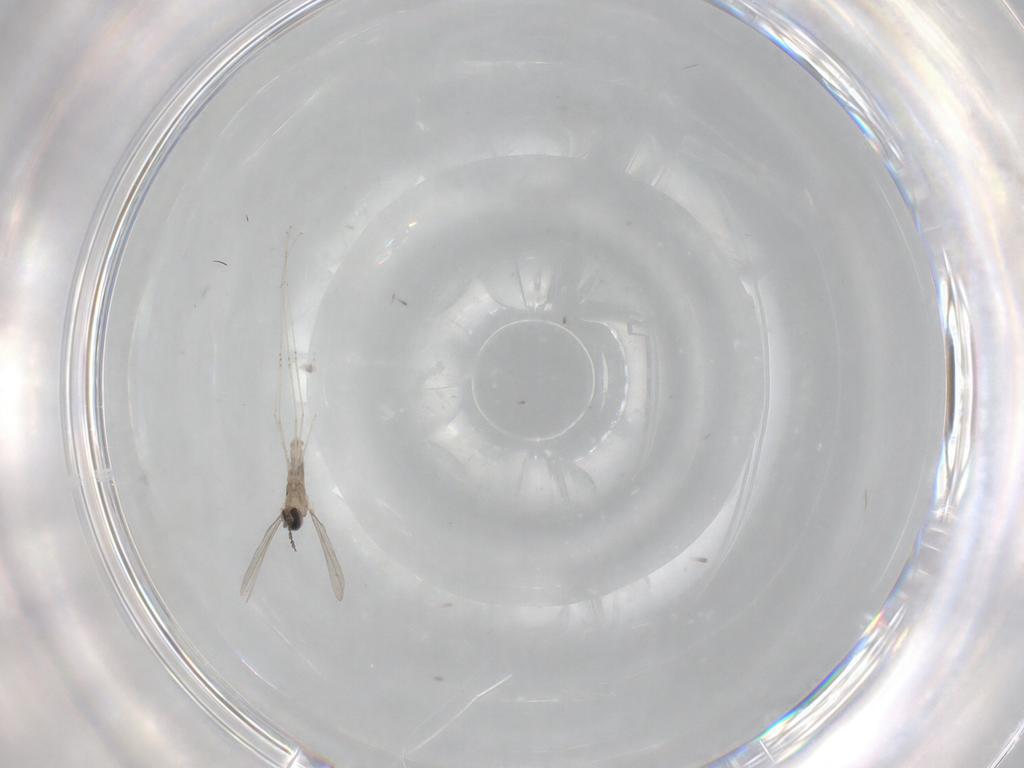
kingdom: Animalia
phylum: Arthropoda
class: Insecta
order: Diptera
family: Cecidomyiidae
